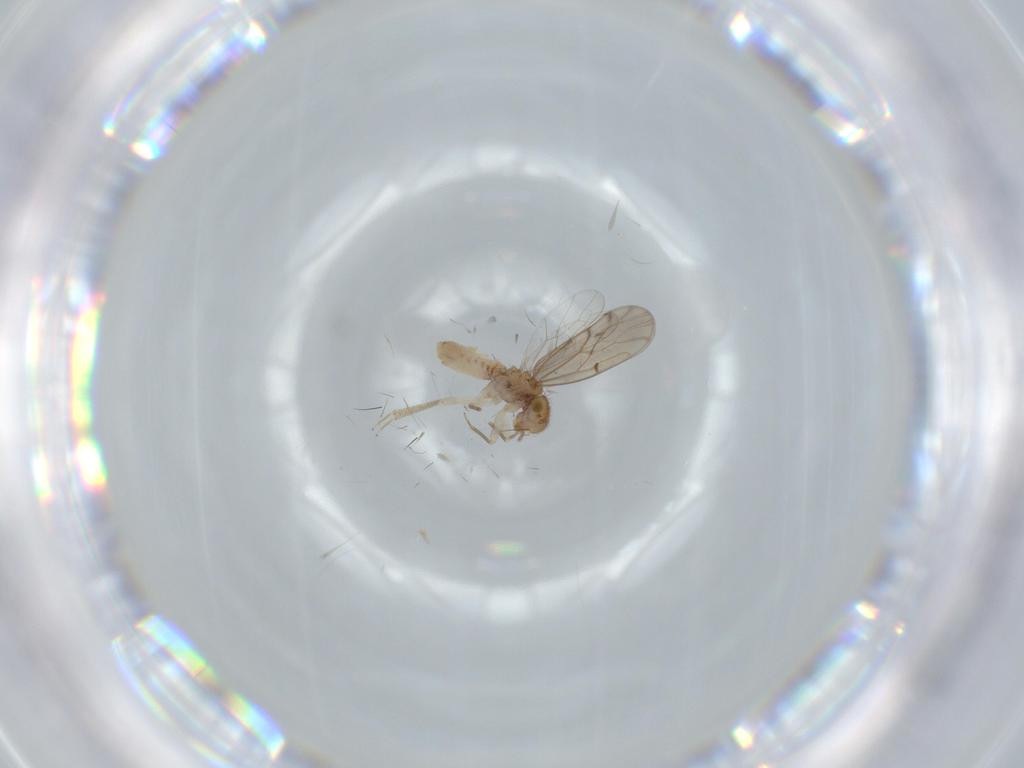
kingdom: Animalia
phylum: Arthropoda
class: Insecta
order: Psocodea
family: Ectopsocidae
